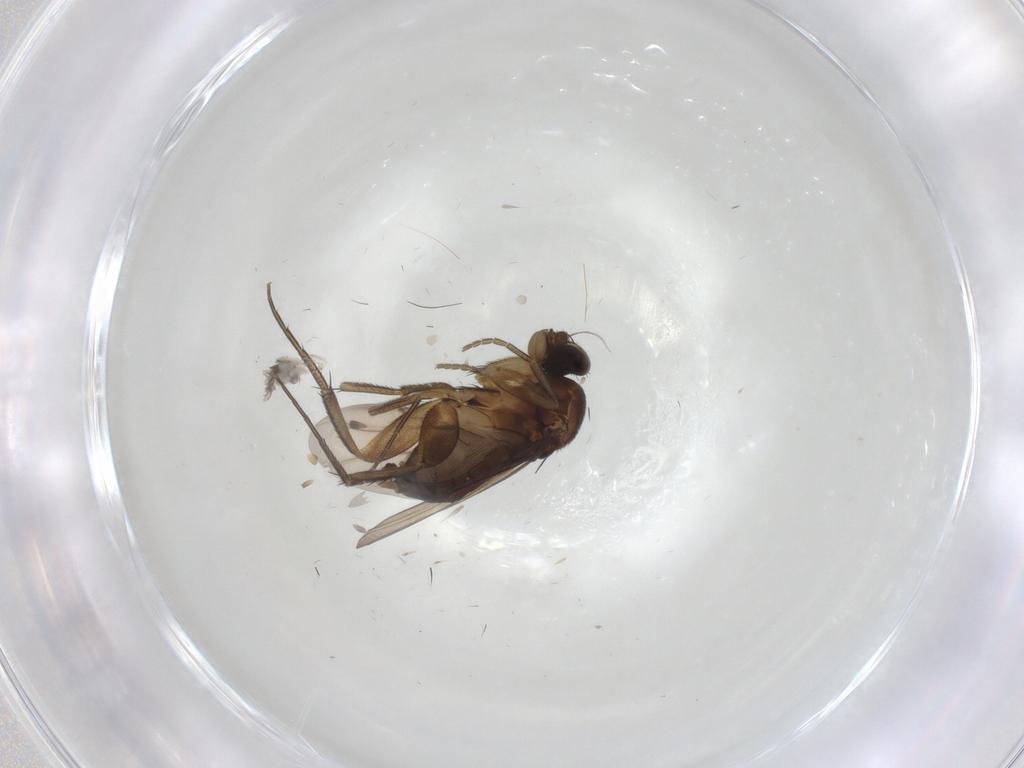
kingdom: Animalia
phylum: Arthropoda
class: Insecta
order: Diptera
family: Phoridae
